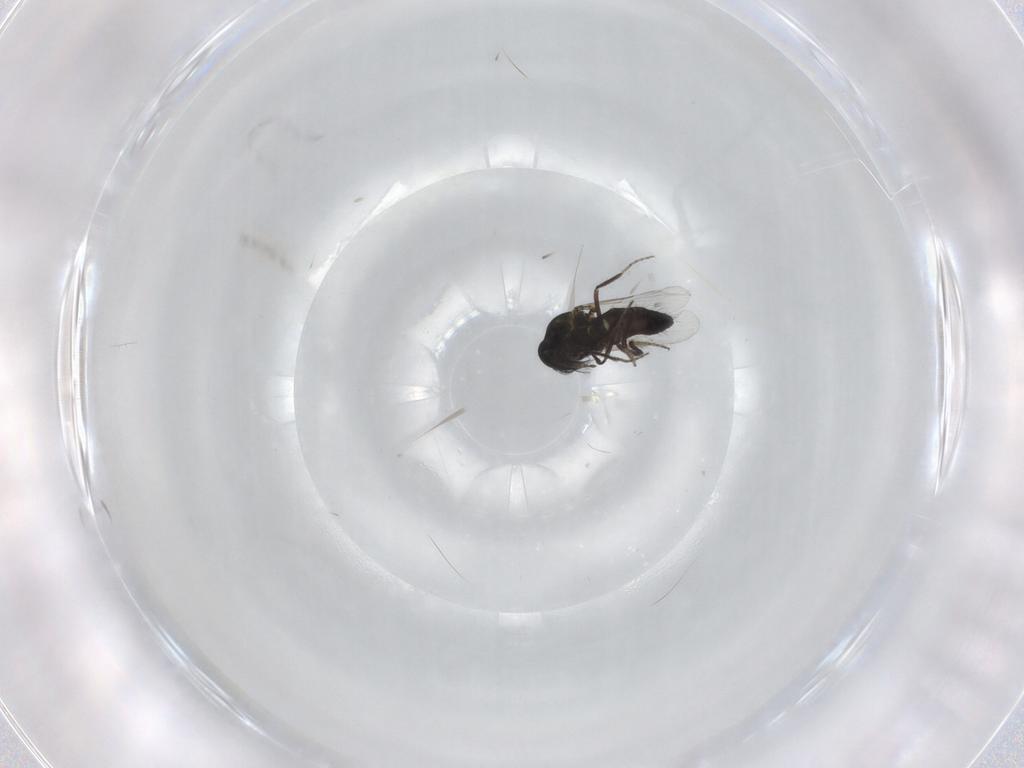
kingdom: Animalia
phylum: Arthropoda
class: Insecta
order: Diptera
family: Ceratopogonidae
